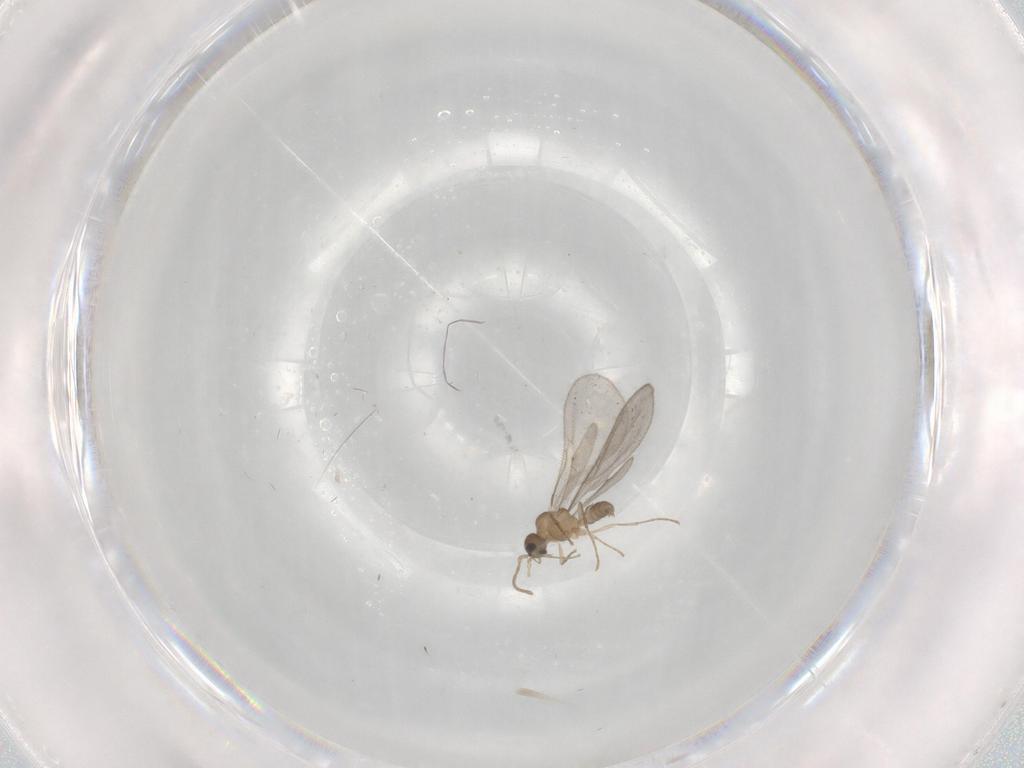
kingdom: Animalia
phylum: Arthropoda
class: Insecta
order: Hymenoptera
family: Formicidae
